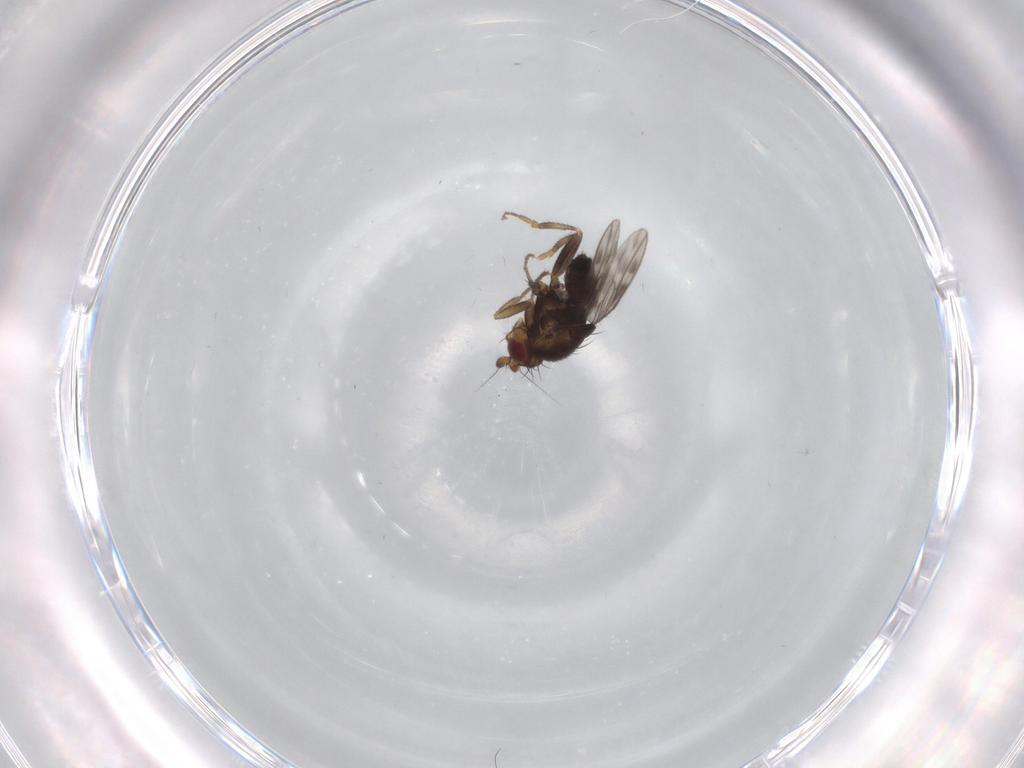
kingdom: Animalia
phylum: Arthropoda
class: Insecta
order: Diptera
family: Sphaeroceridae
